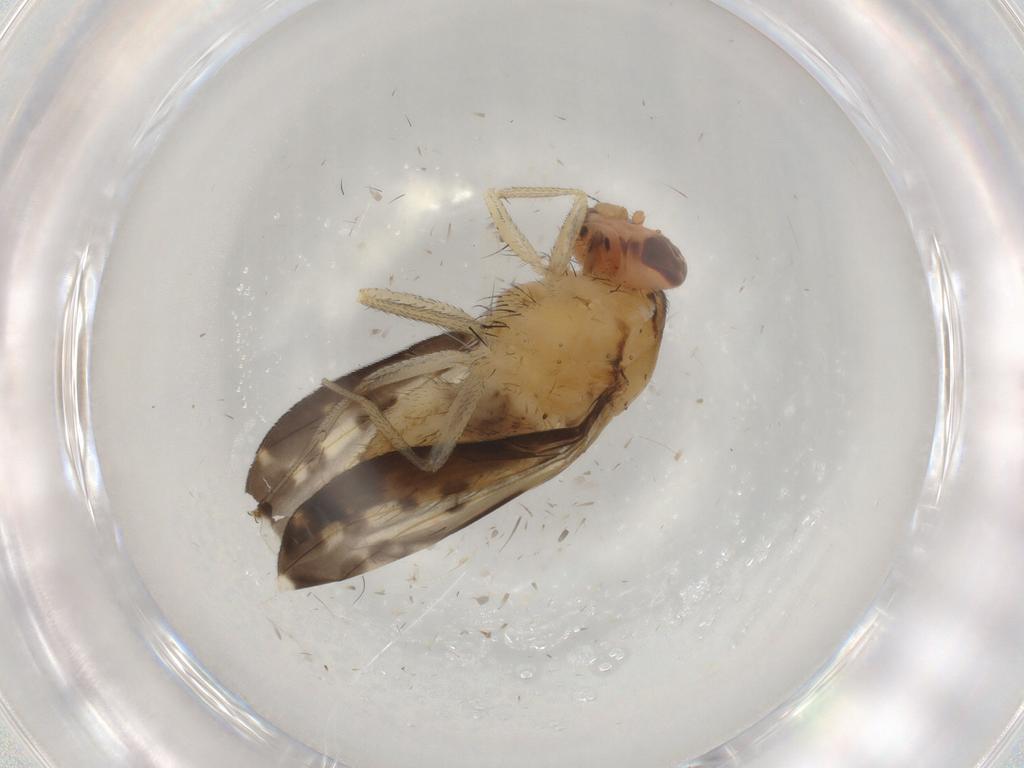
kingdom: Animalia
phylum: Arthropoda
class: Insecta
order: Diptera
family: Lauxaniidae
